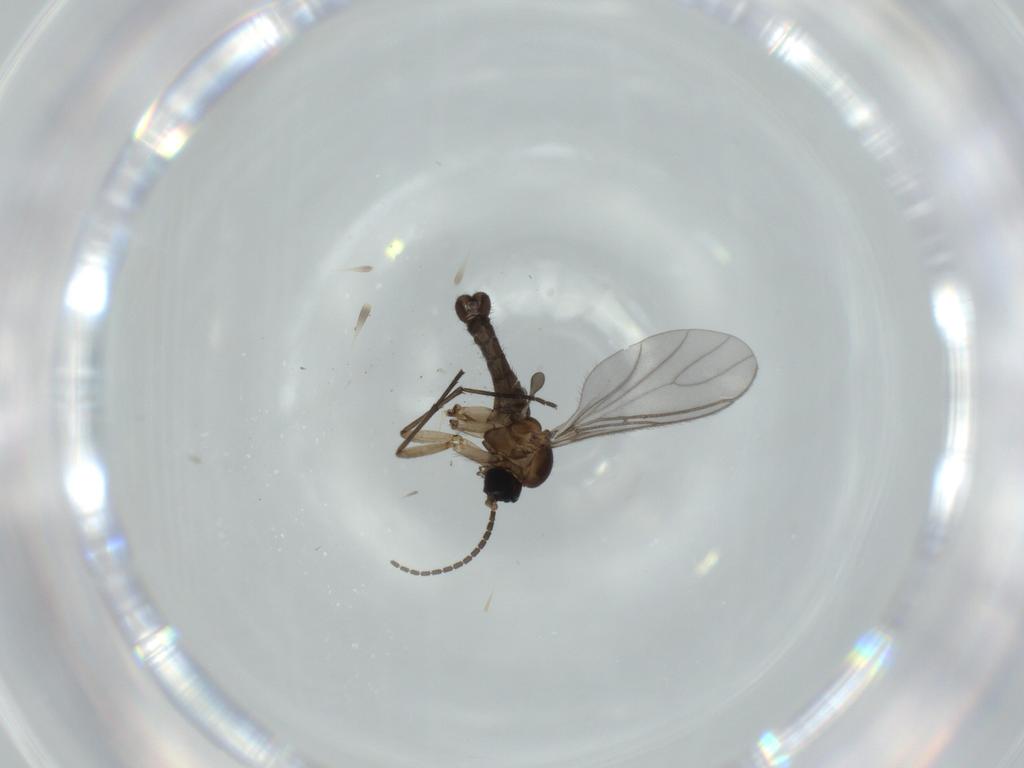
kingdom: Animalia
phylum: Arthropoda
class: Insecta
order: Diptera
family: Sciaridae
